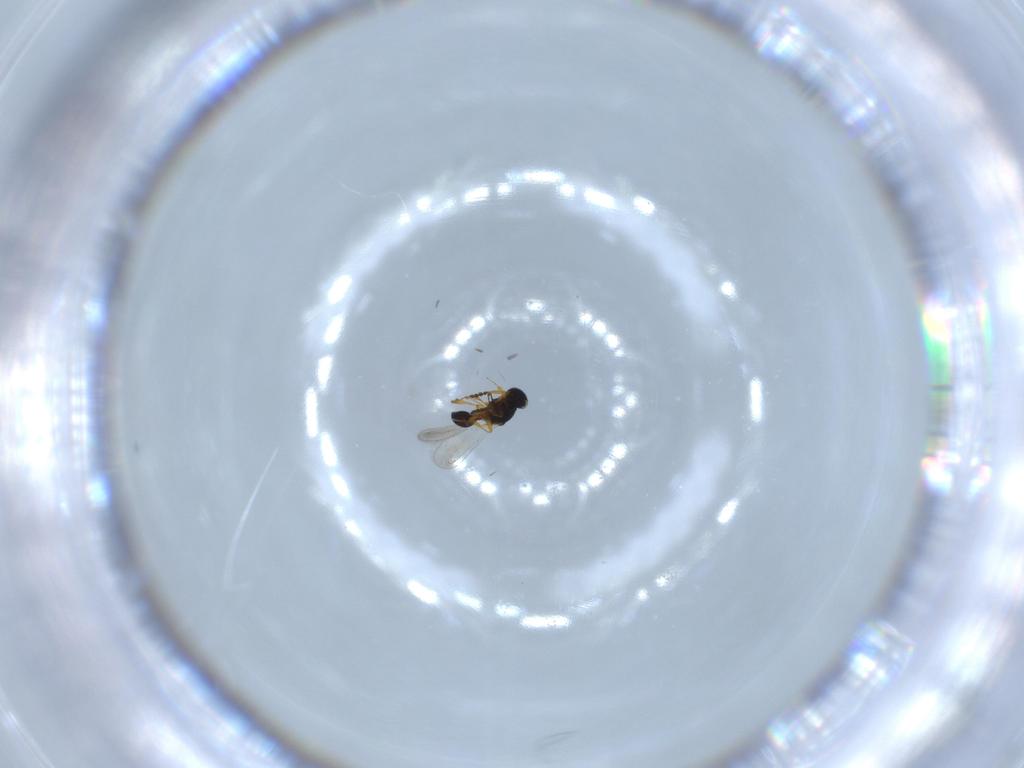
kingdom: Animalia
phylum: Arthropoda
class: Insecta
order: Hymenoptera
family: Platygastridae
